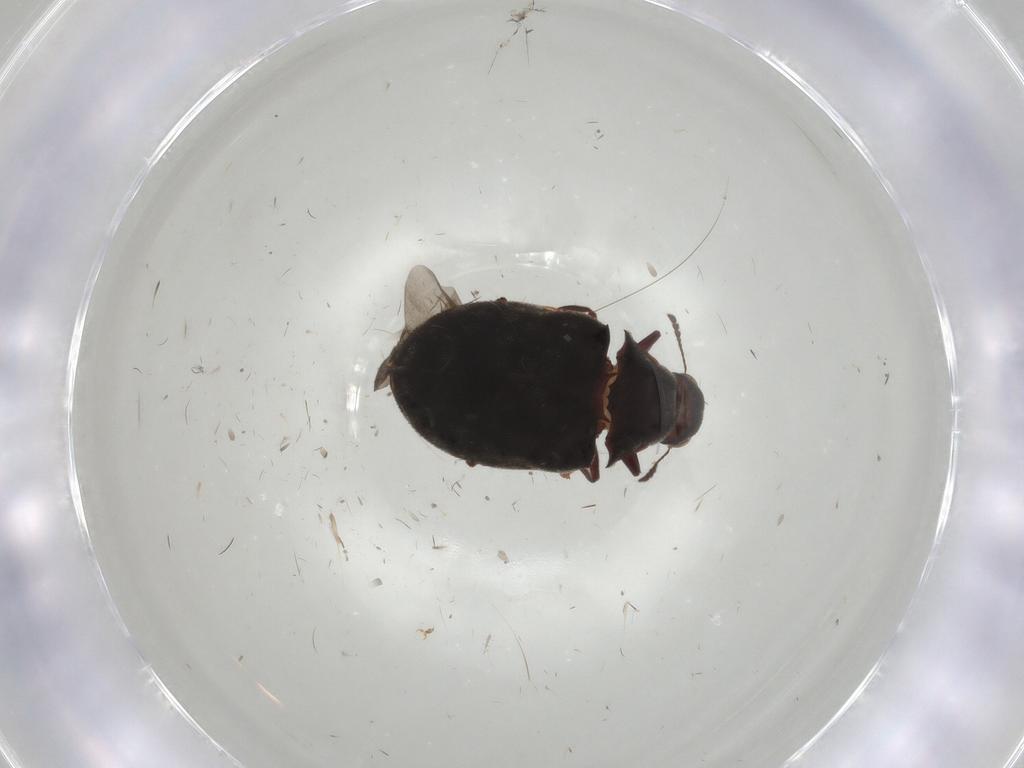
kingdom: Animalia
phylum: Arthropoda
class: Insecta
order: Coleoptera
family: Limnichidae
